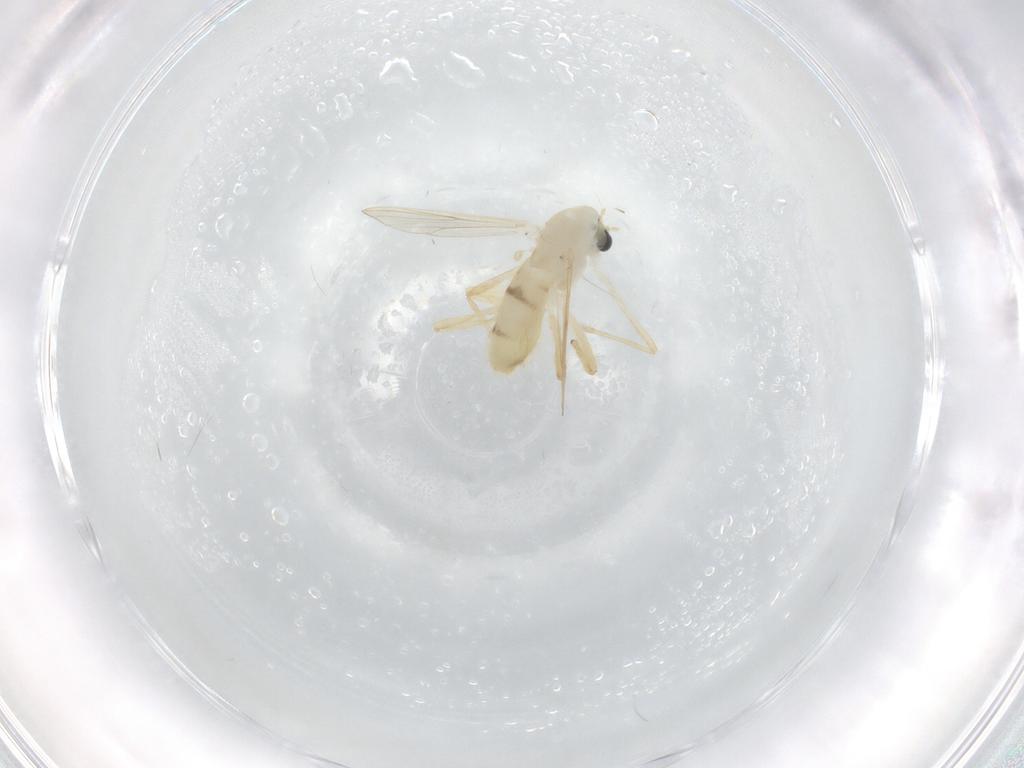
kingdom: Animalia
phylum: Arthropoda
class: Insecta
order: Diptera
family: Chironomidae
